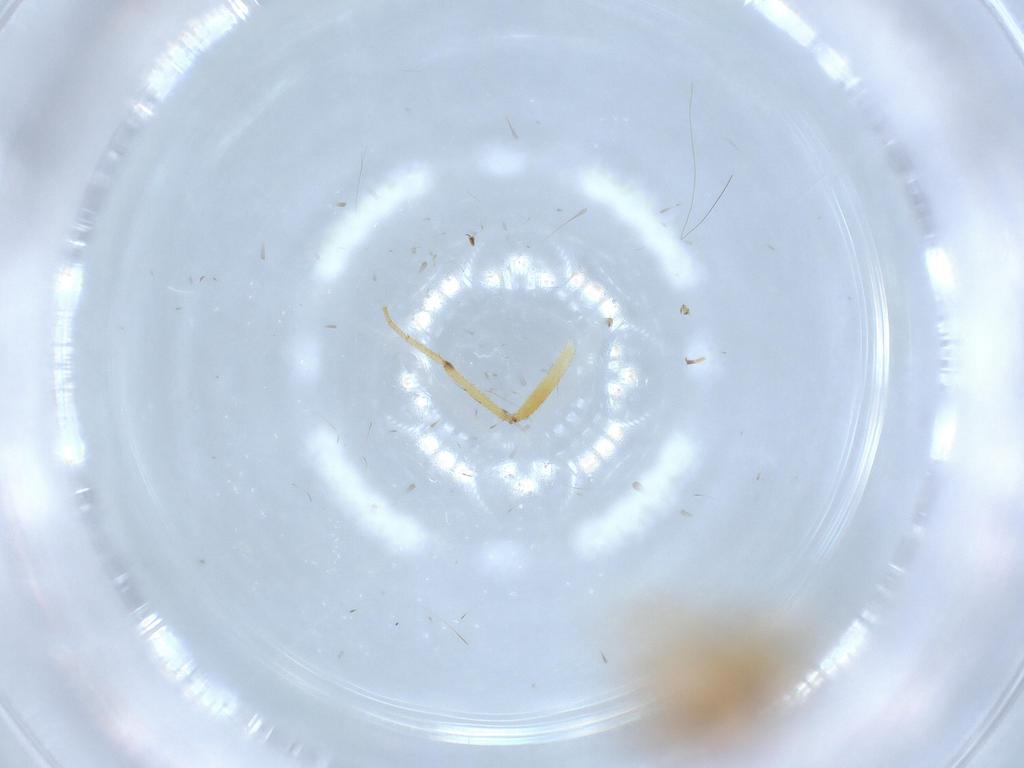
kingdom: Animalia
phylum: Arthropoda
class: Insecta
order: Diptera
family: Hybotidae
